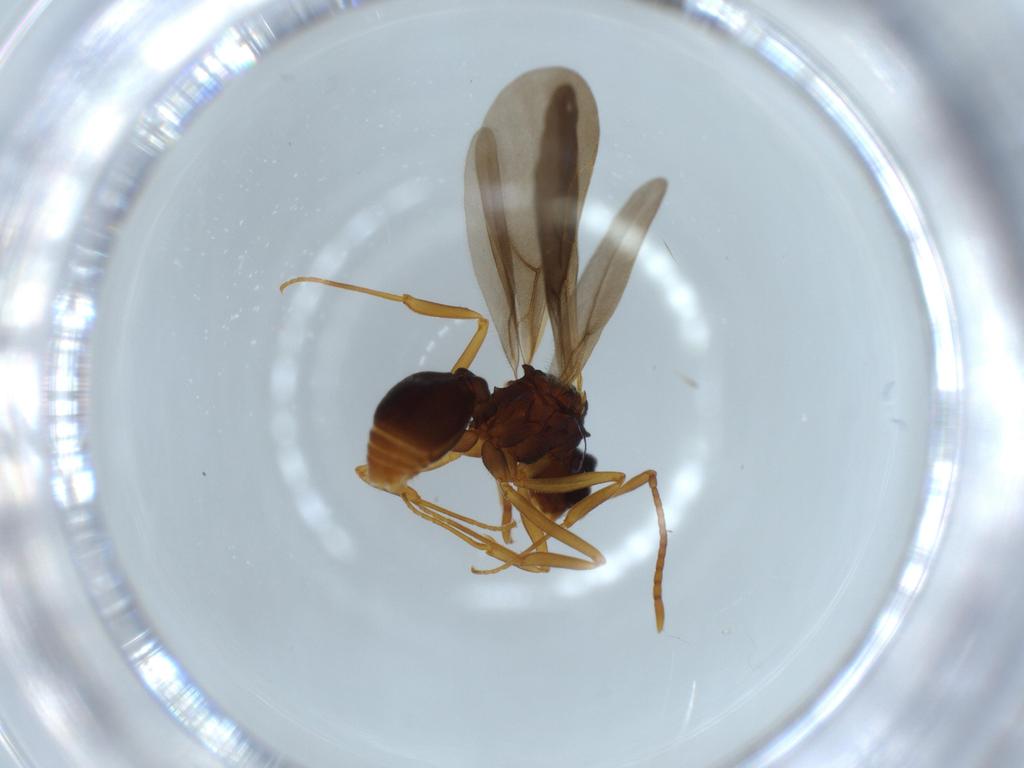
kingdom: Animalia
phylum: Arthropoda
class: Insecta
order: Hymenoptera
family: Formicidae
